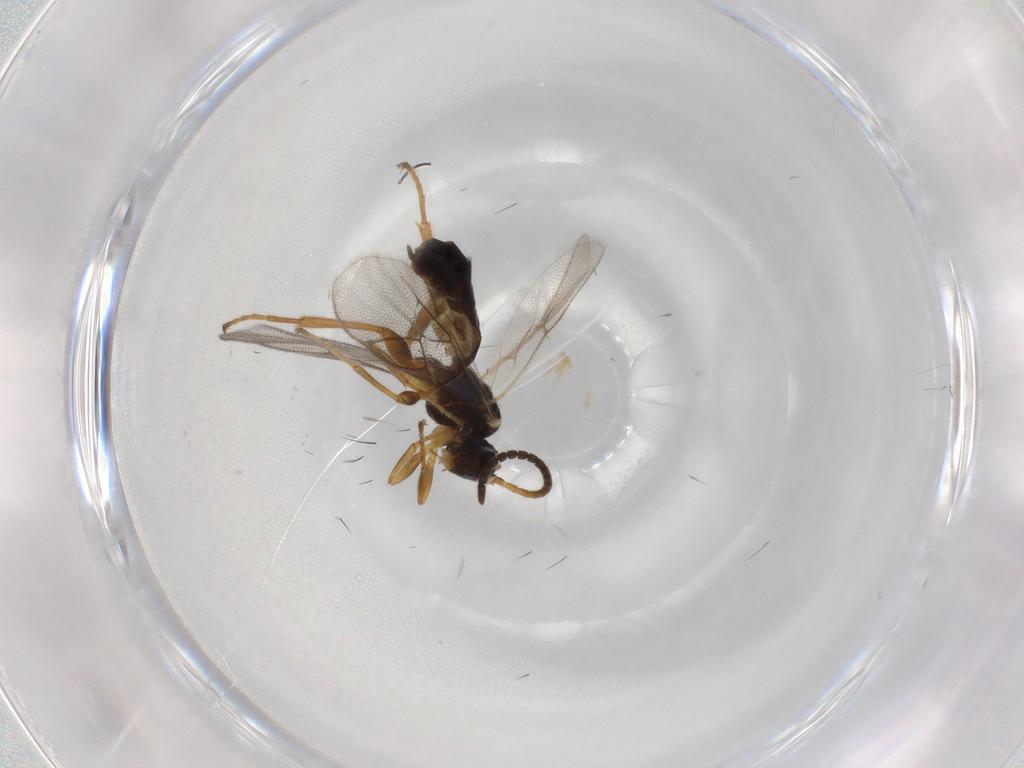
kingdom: Animalia
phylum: Arthropoda
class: Insecta
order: Hymenoptera
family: Ichneumonidae
